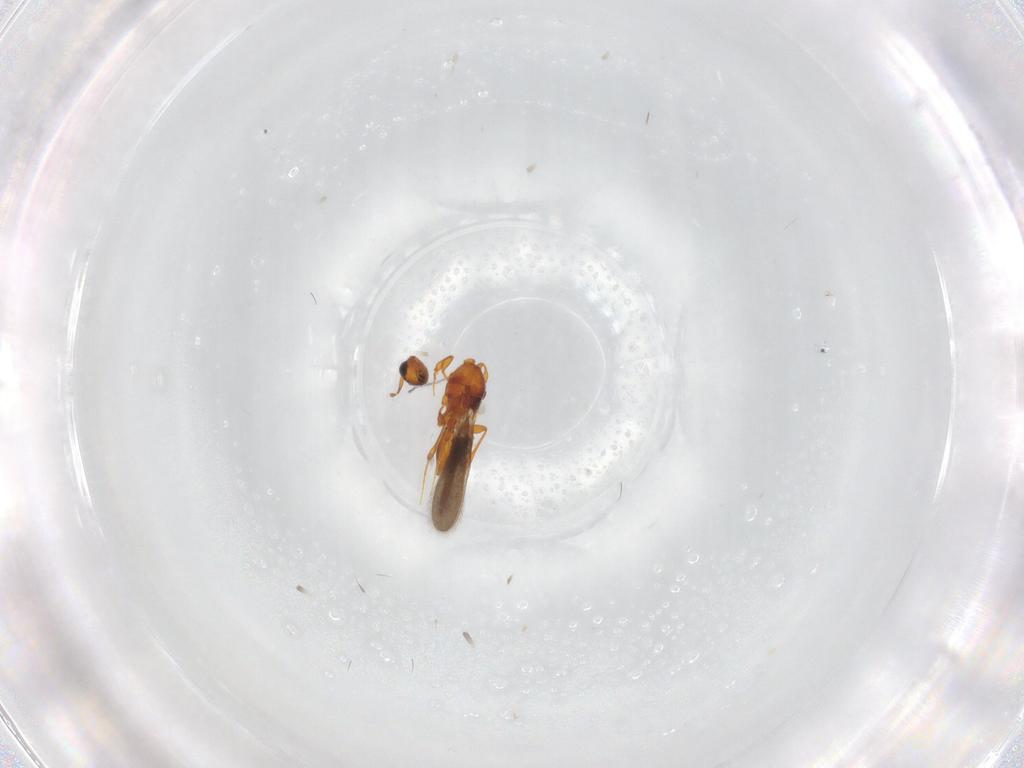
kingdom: Animalia
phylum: Arthropoda
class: Insecta
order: Hymenoptera
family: Platygastridae
